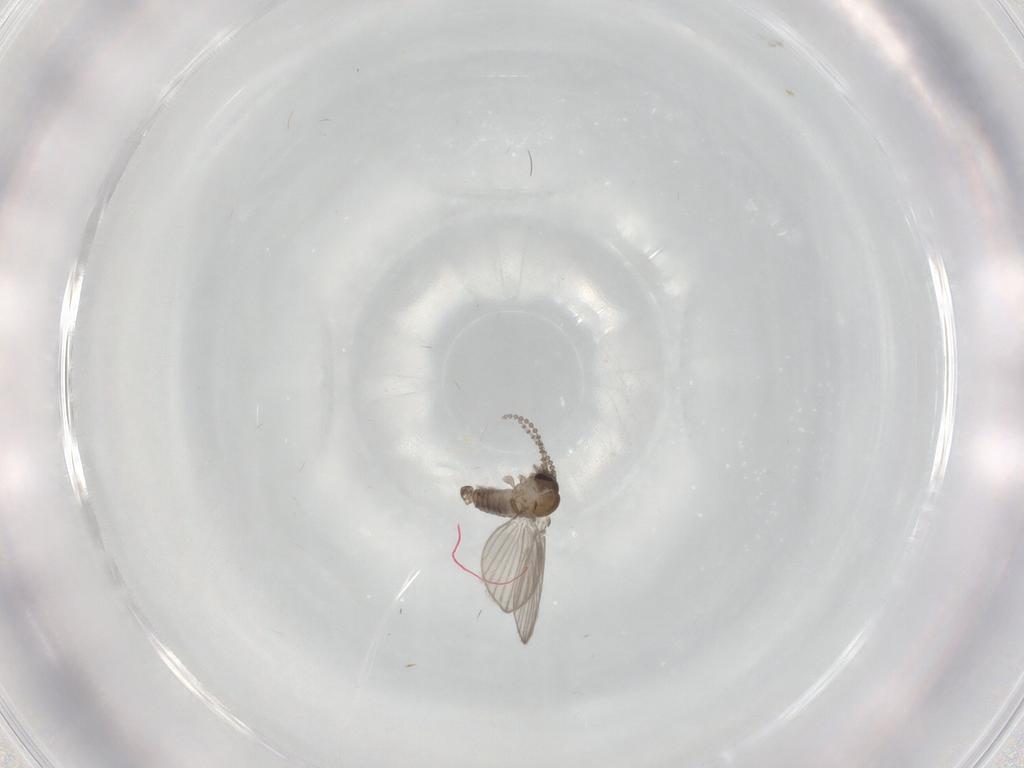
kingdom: Animalia
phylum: Arthropoda
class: Insecta
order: Diptera
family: Psychodidae
